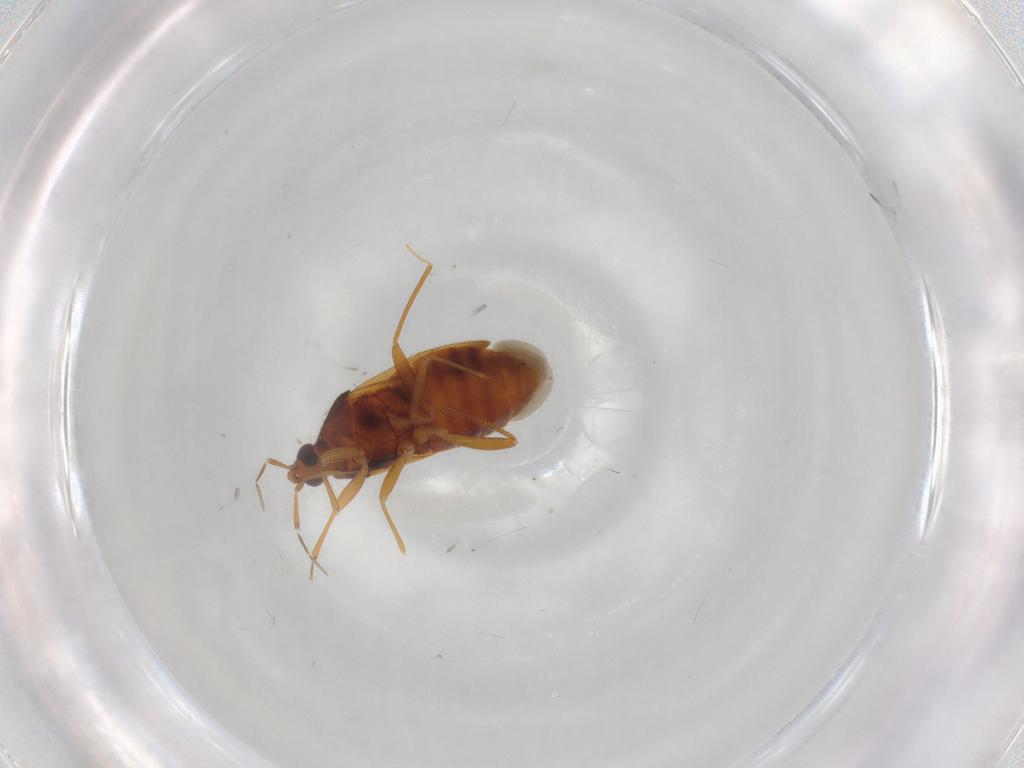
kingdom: Animalia
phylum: Arthropoda
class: Insecta
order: Hemiptera
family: Anthocoridae
